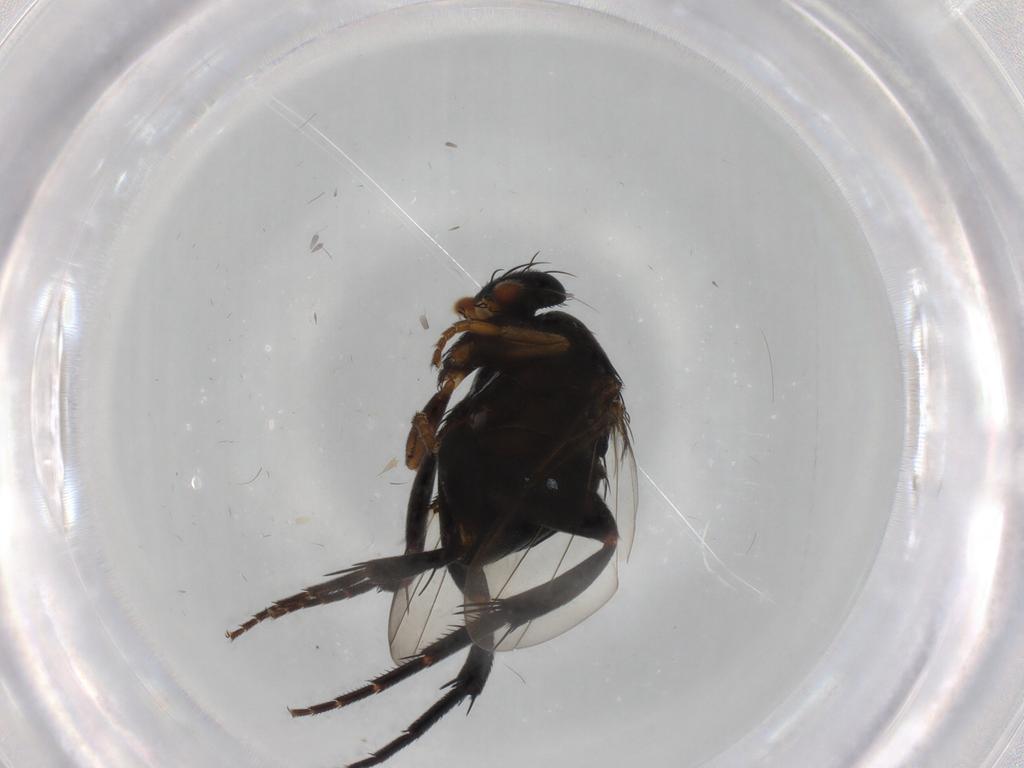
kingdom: Animalia
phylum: Arthropoda
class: Insecta
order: Diptera
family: Phoridae
